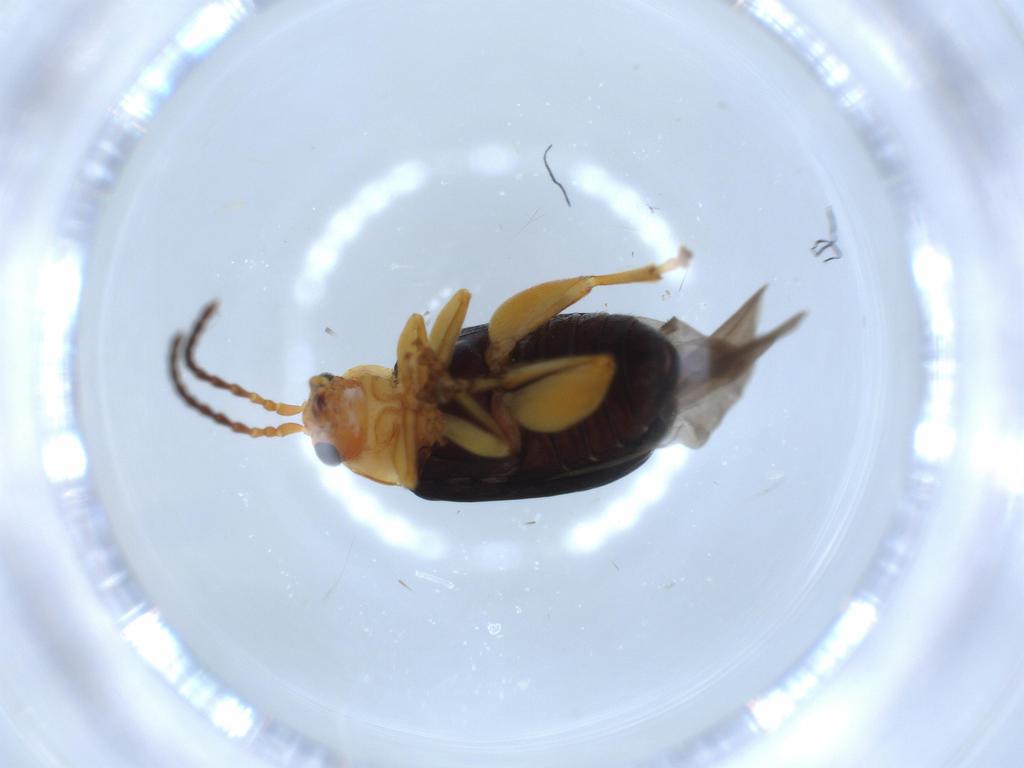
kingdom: Animalia
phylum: Arthropoda
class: Insecta
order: Coleoptera
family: Chrysomelidae
